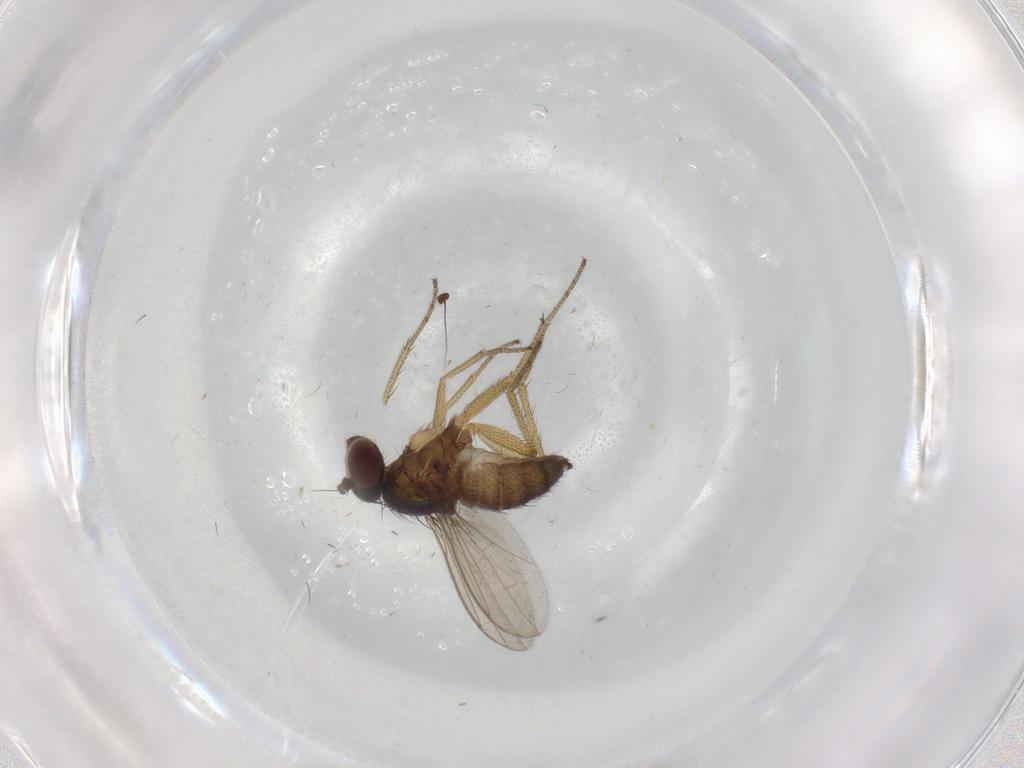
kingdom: Animalia
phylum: Arthropoda
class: Insecta
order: Diptera
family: Dolichopodidae
